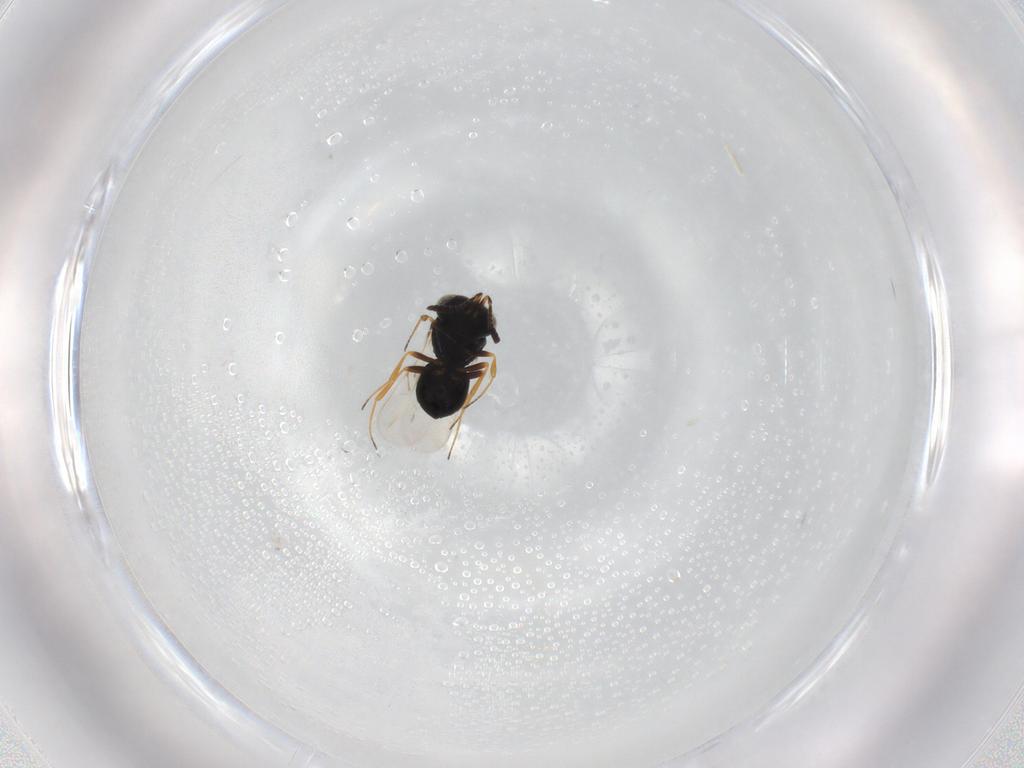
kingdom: Animalia
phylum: Arthropoda
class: Insecta
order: Hymenoptera
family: Scelionidae
